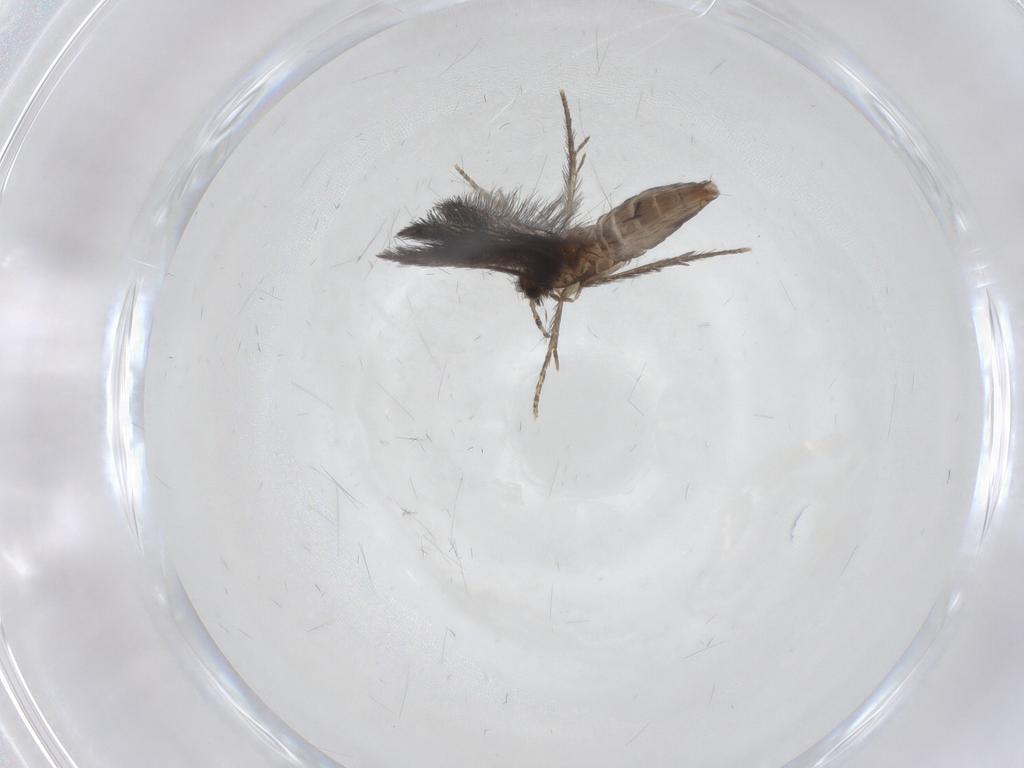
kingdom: Animalia
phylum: Arthropoda
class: Insecta
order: Trichoptera
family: Hydroptilidae
